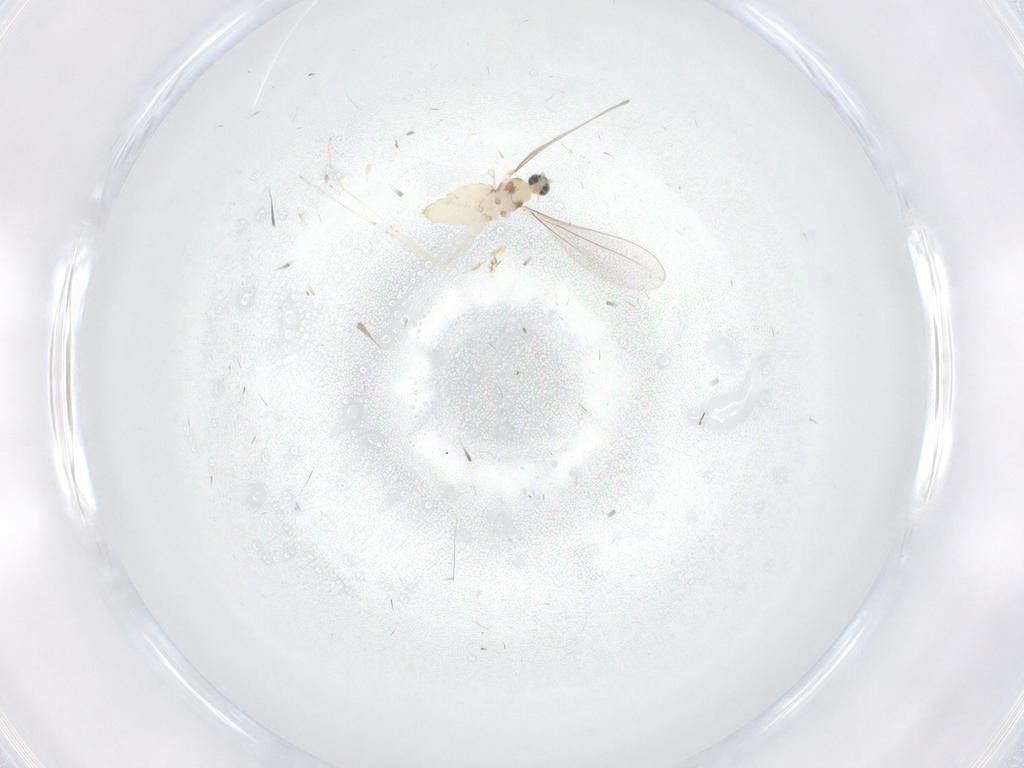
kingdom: Animalia
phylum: Arthropoda
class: Insecta
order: Diptera
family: Cecidomyiidae
